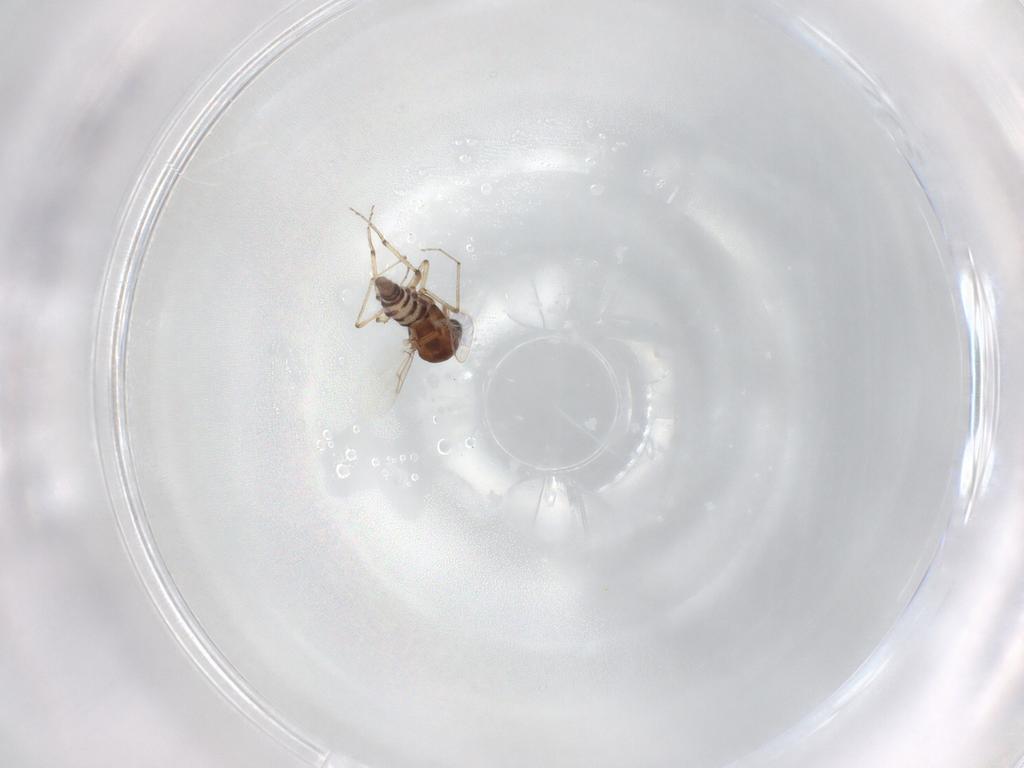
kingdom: Animalia
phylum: Arthropoda
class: Insecta
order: Diptera
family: Ceratopogonidae
